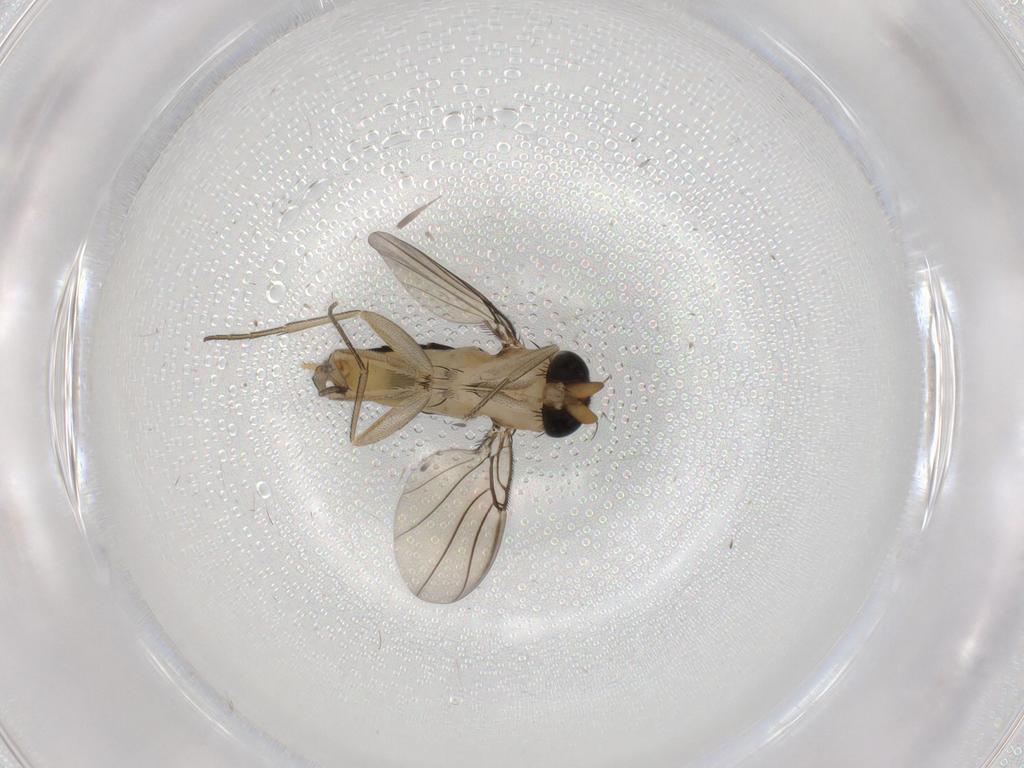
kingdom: Animalia
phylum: Arthropoda
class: Insecta
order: Diptera
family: Phoridae
